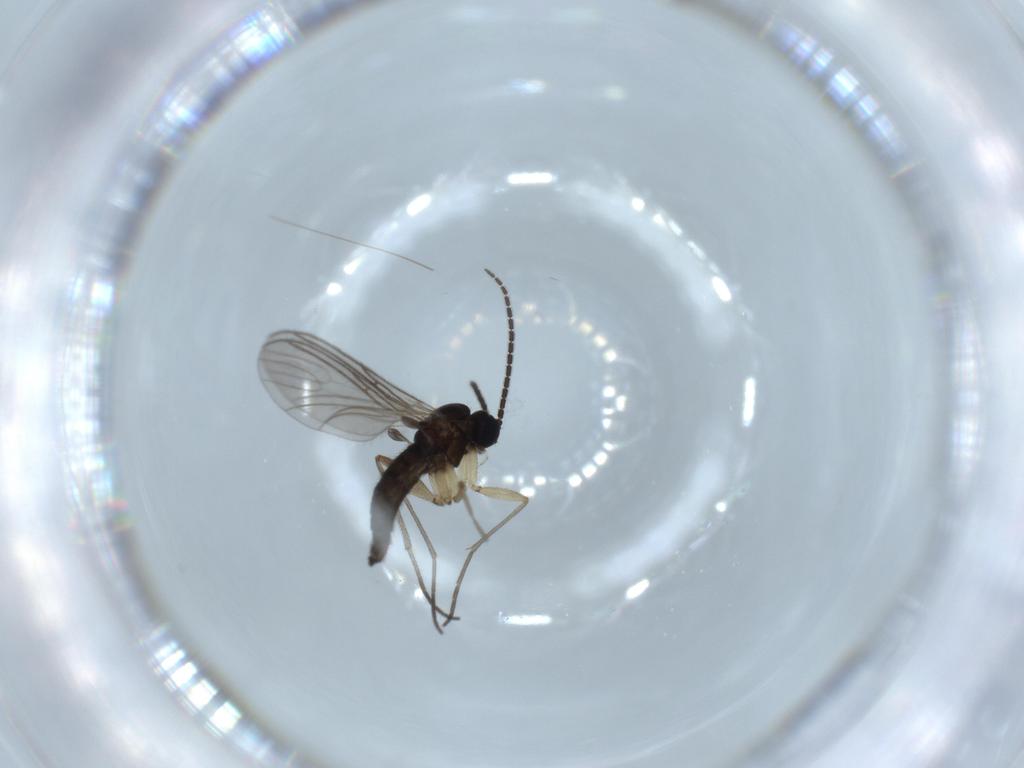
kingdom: Animalia
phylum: Arthropoda
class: Insecta
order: Diptera
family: Sciaridae
